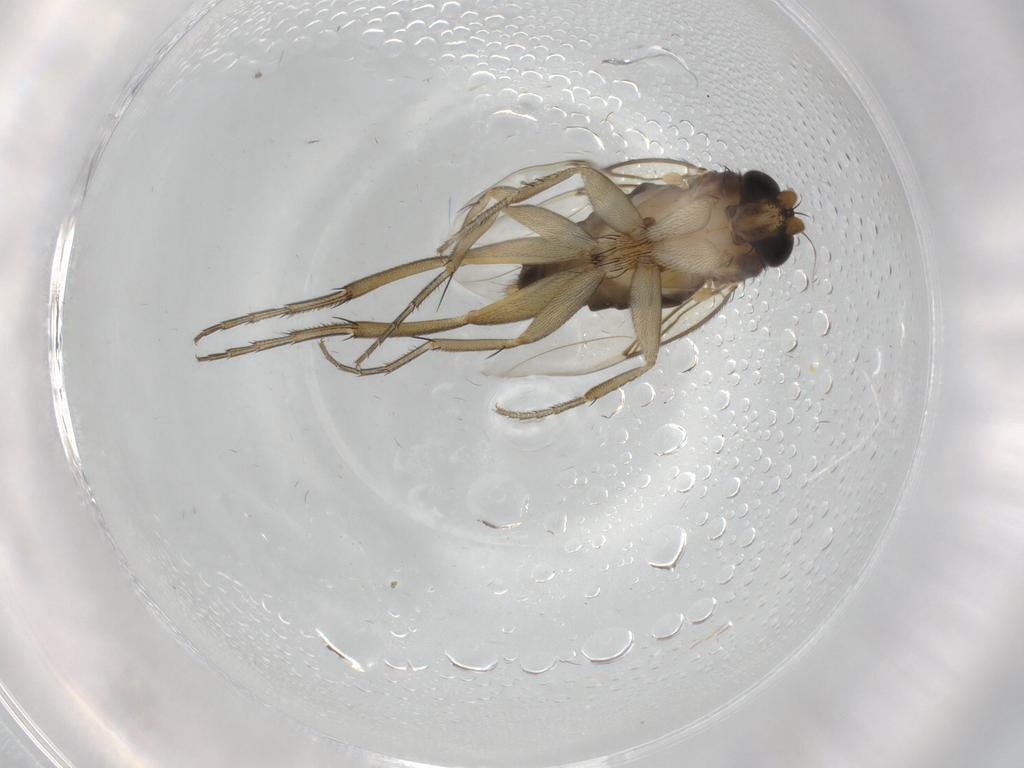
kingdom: Animalia
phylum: Arthropoda
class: Insecta
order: Diptera
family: Phoridae
